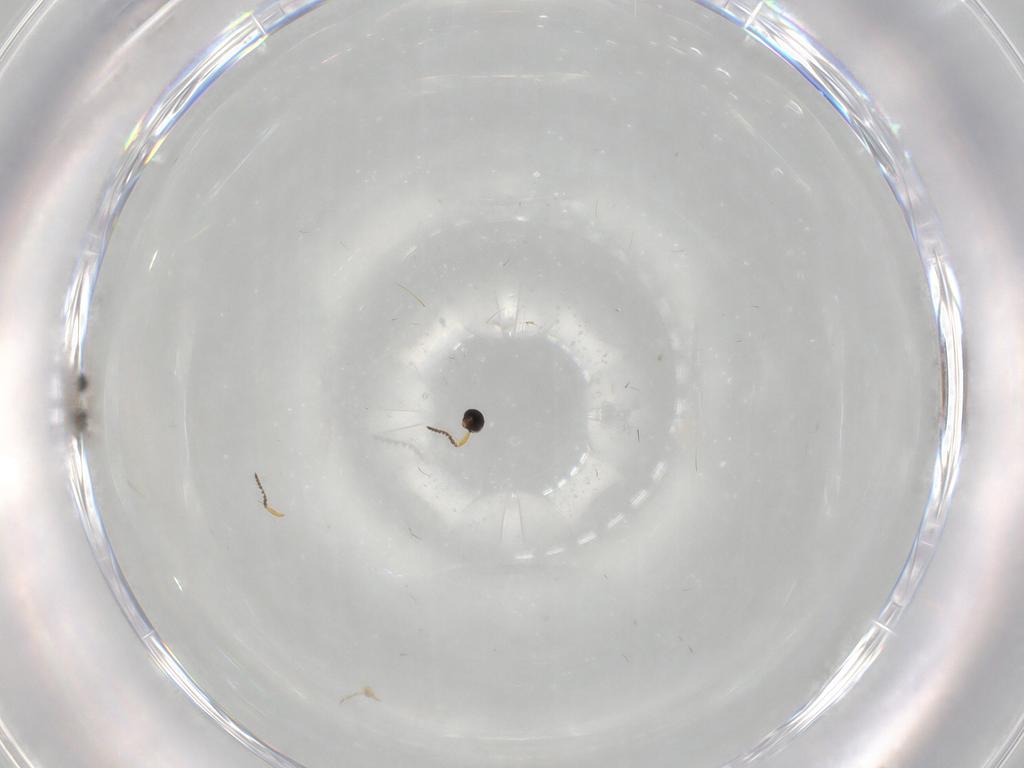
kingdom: Animalia
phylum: Arthropoda
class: Insecta
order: Hymenoptera
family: Platygastridae
